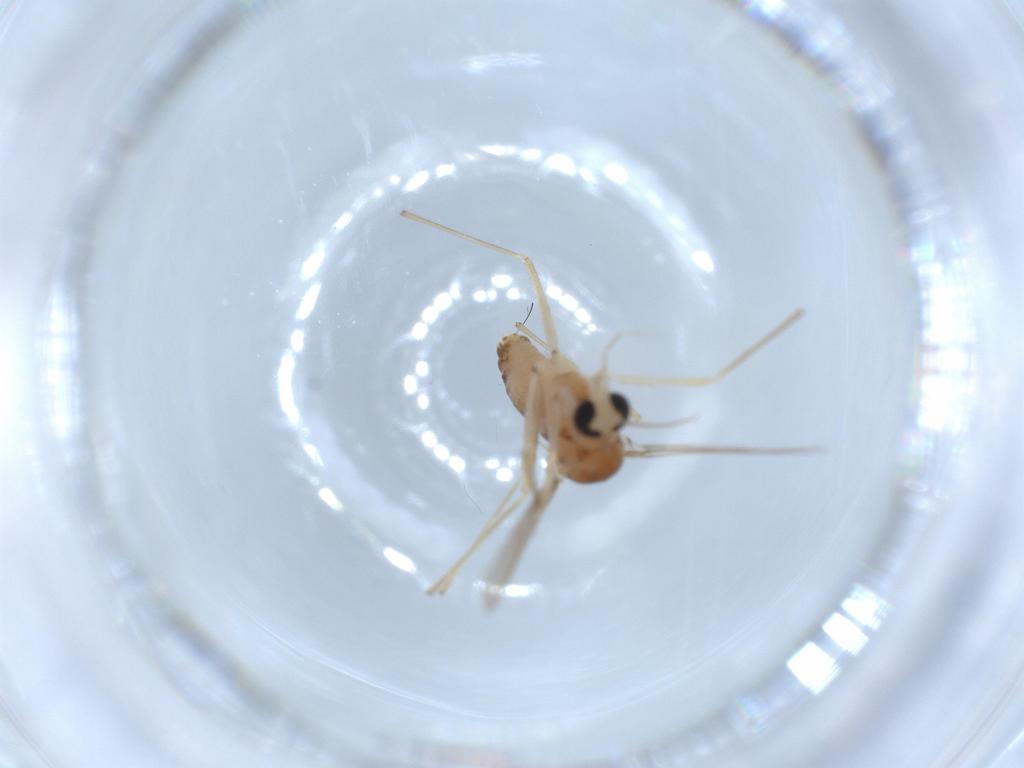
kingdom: Animalia
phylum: Arthropoda
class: Insecta
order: Diptera
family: Chironomidae
